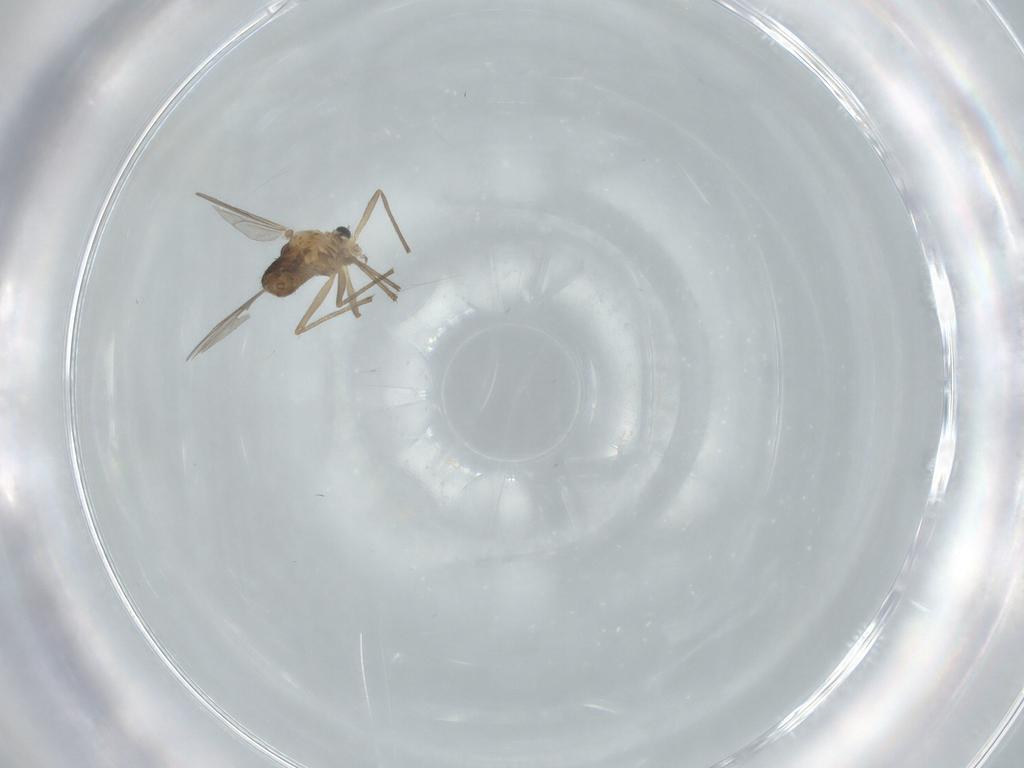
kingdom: Animalia
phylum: Arthropoda
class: Insecta
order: Diptera
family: Chironomidae
